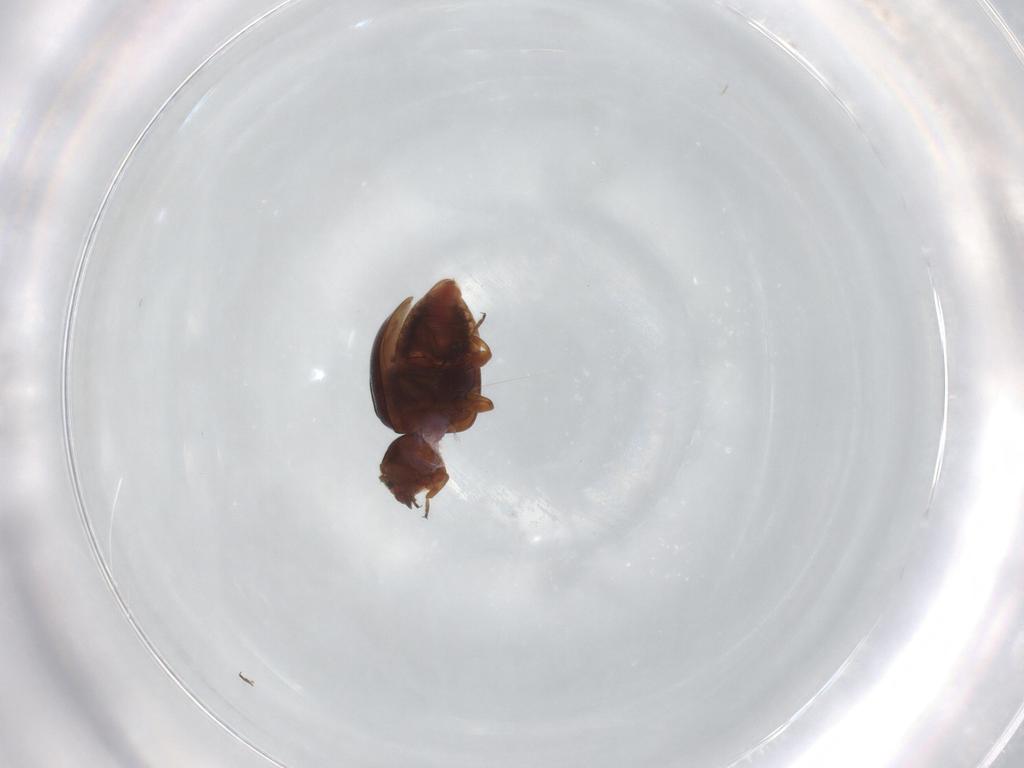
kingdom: Animalia
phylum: Arthropoda
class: Insecta
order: Coleoptera
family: Coccinellidae
